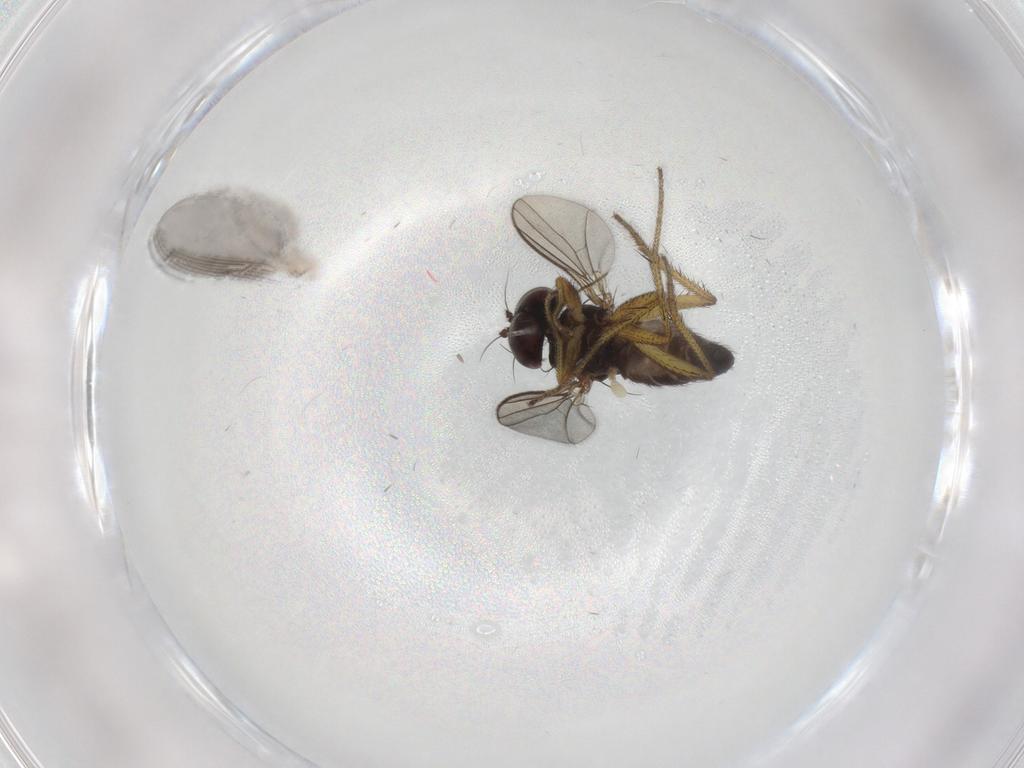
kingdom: Animalia
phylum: Arthropoda
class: Insecta
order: Diptera
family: Dolichopodidae
